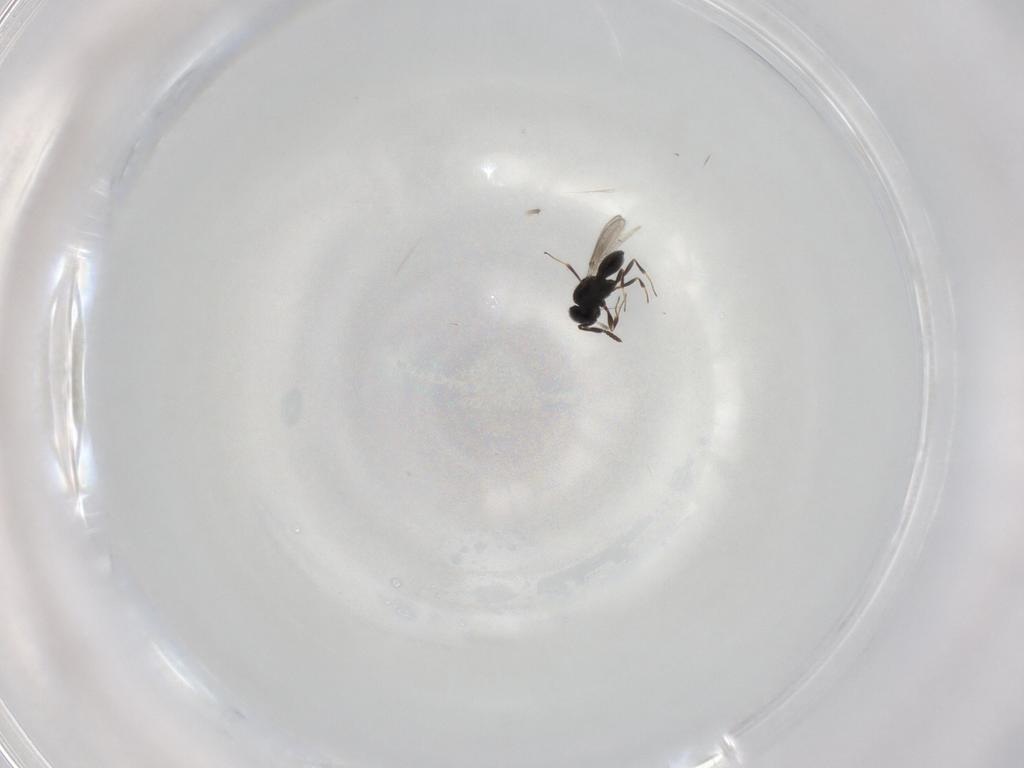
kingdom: Animalia
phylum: Arthropoda
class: Insecta
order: Hymenoptera
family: Scelionidae
